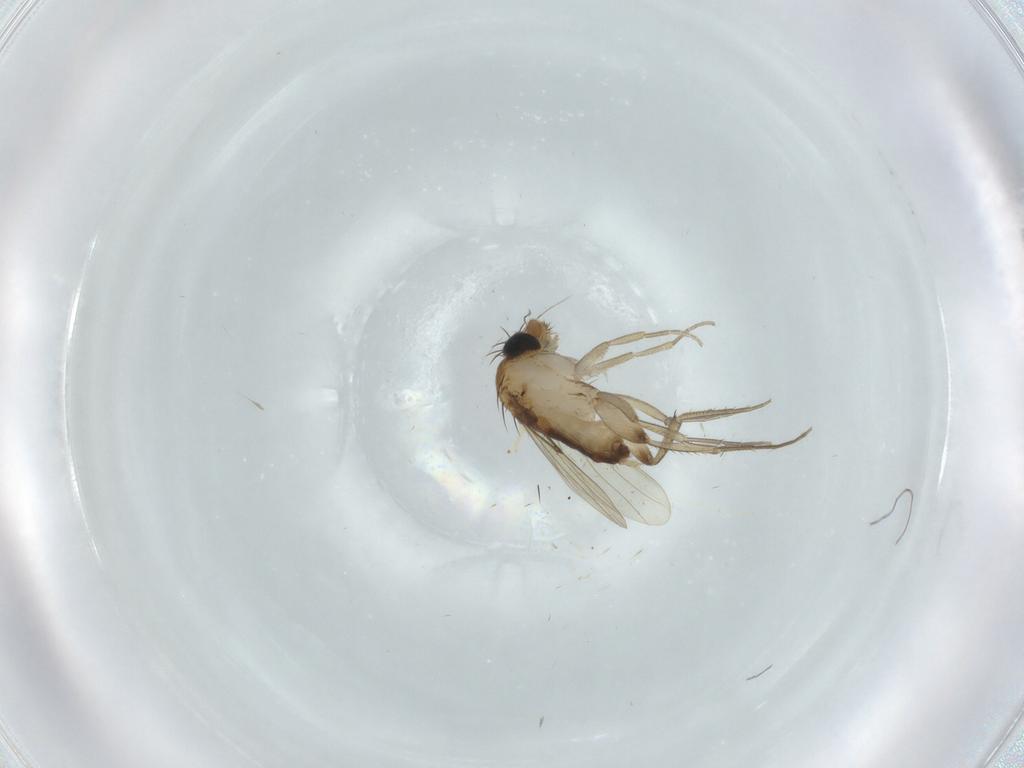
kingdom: Animalia
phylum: Arthropoda
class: Insecta
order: Diptera
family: Phoridae
